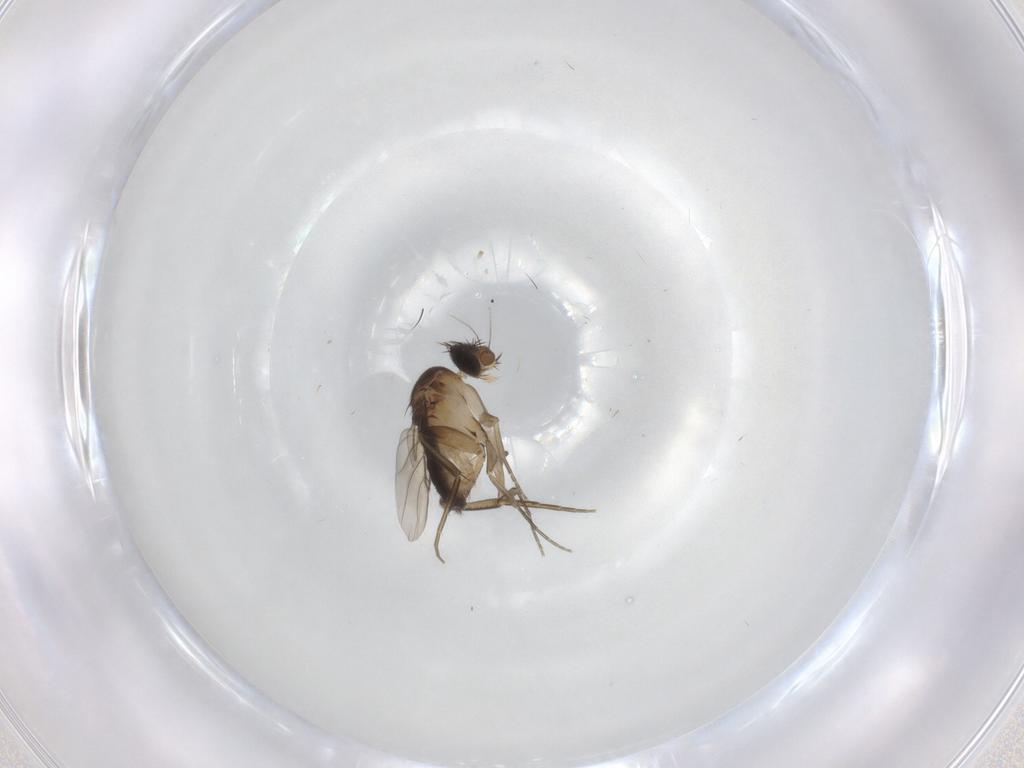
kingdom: Animalia
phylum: Arthropoda
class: Insecta
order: Diptera
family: Phoridae
